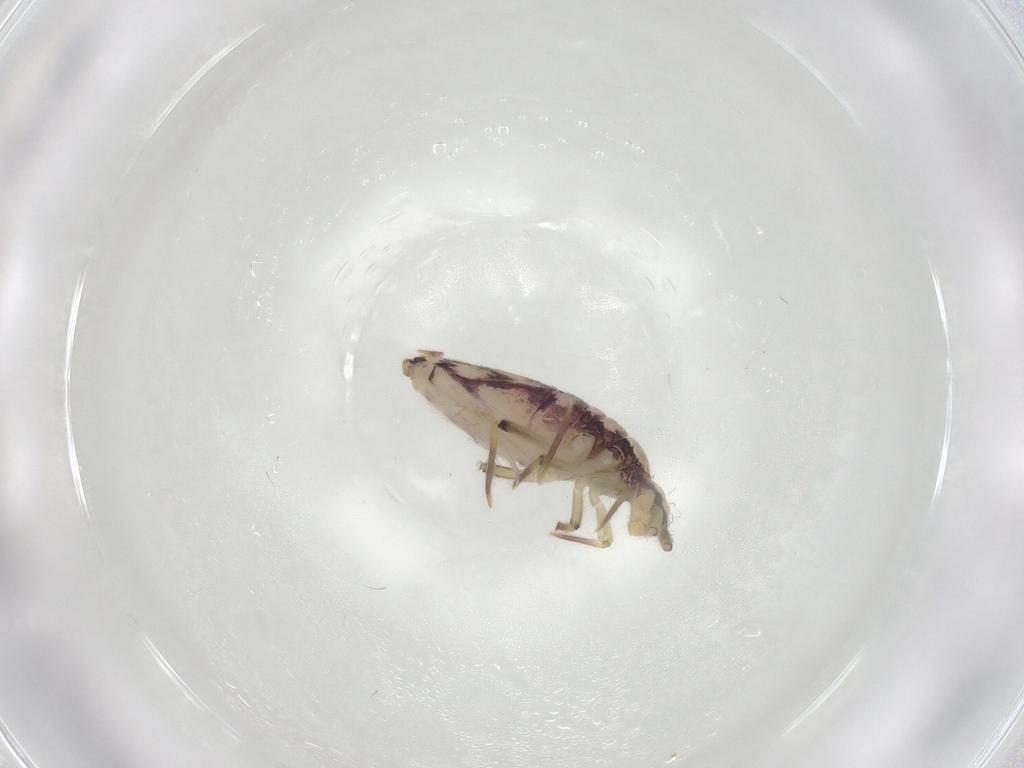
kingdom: Animalia
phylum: Arthropoda
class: Collembola
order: Entomobryomorpha
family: Entomobryidae
